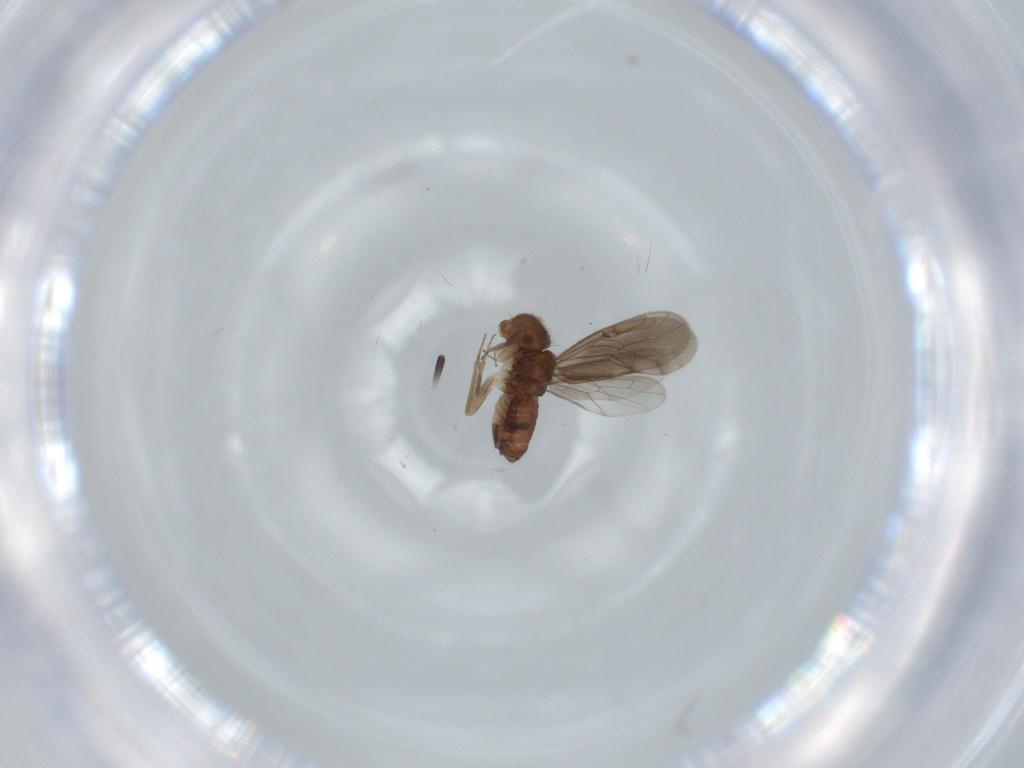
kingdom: Animalia
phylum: Arthropoda
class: Insecta
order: Psocodea
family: Ectopsocidae
